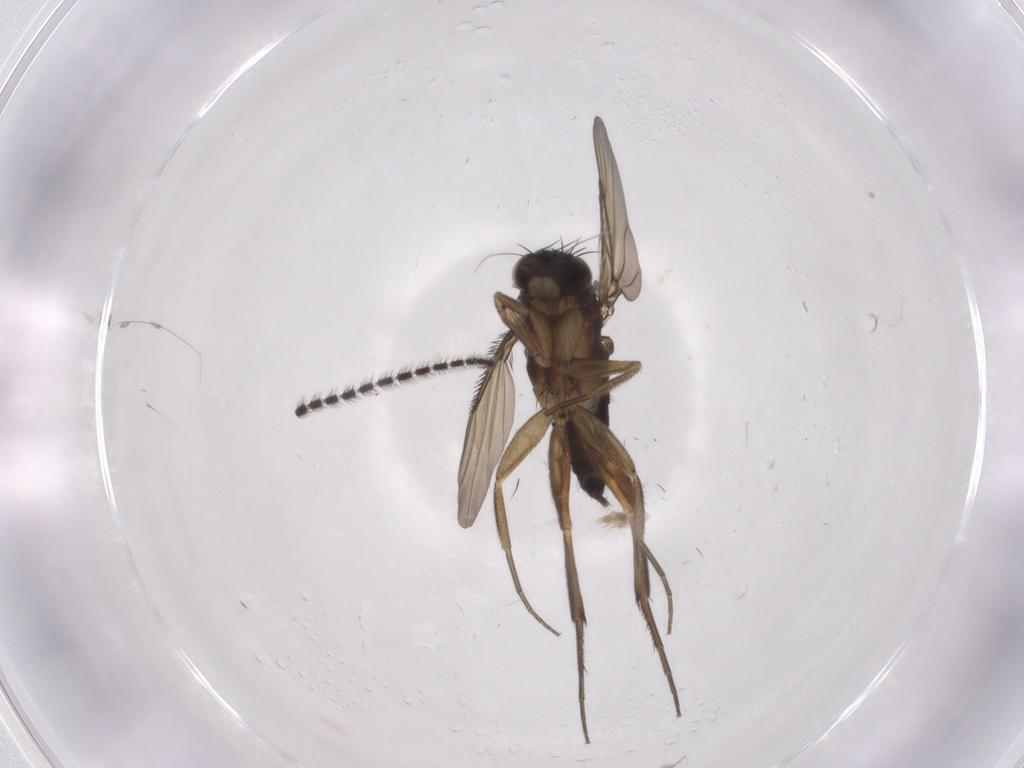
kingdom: Animalia
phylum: Arthropoda
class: Insecta
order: Diptera
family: Phoridae
